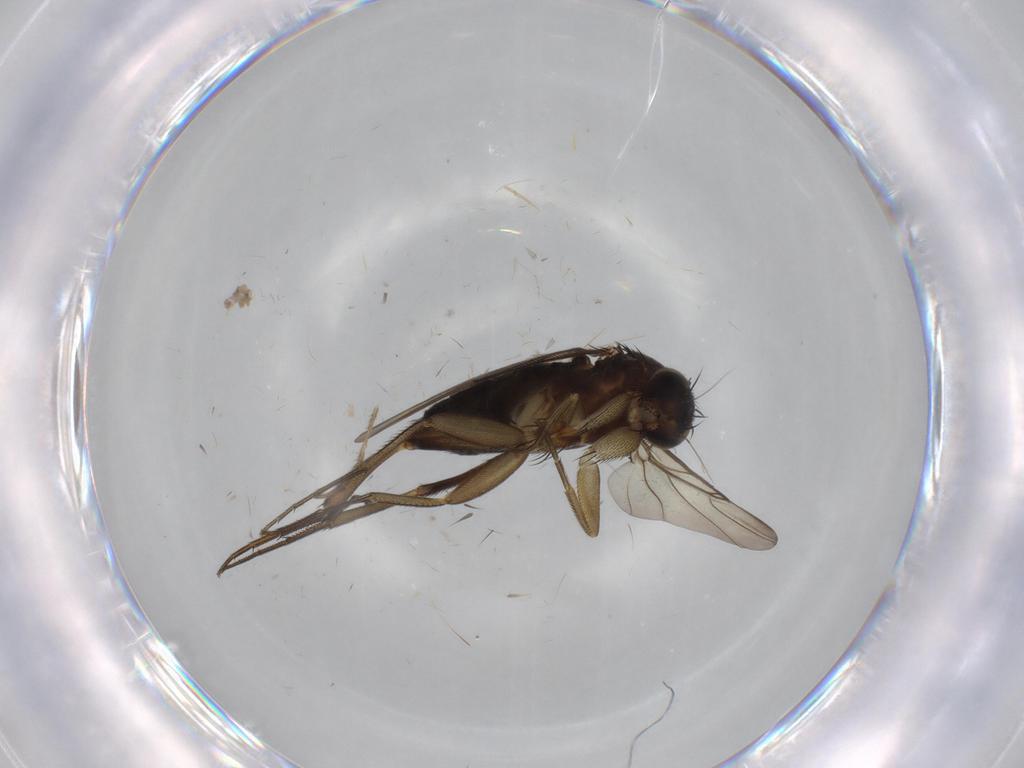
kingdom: Animalia
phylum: Arthropoda
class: Insecta
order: Diptera
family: Phoridae
